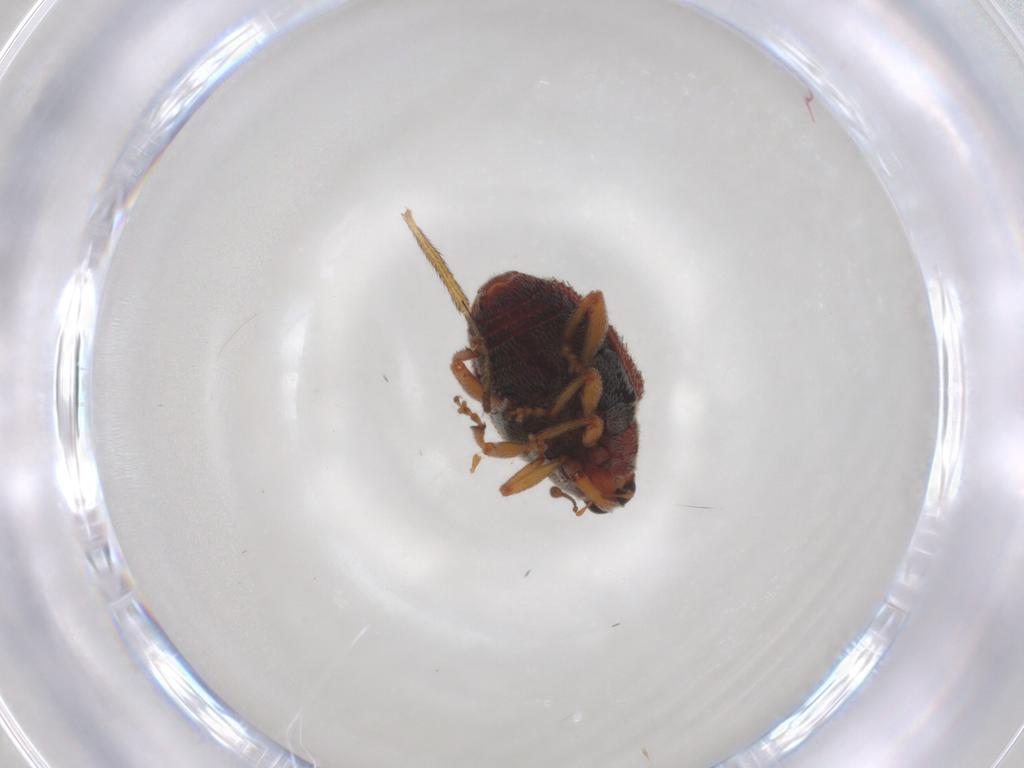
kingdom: Animalia
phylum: Arthropoda
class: Insecta
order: Coleoptera
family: Curculionidae
